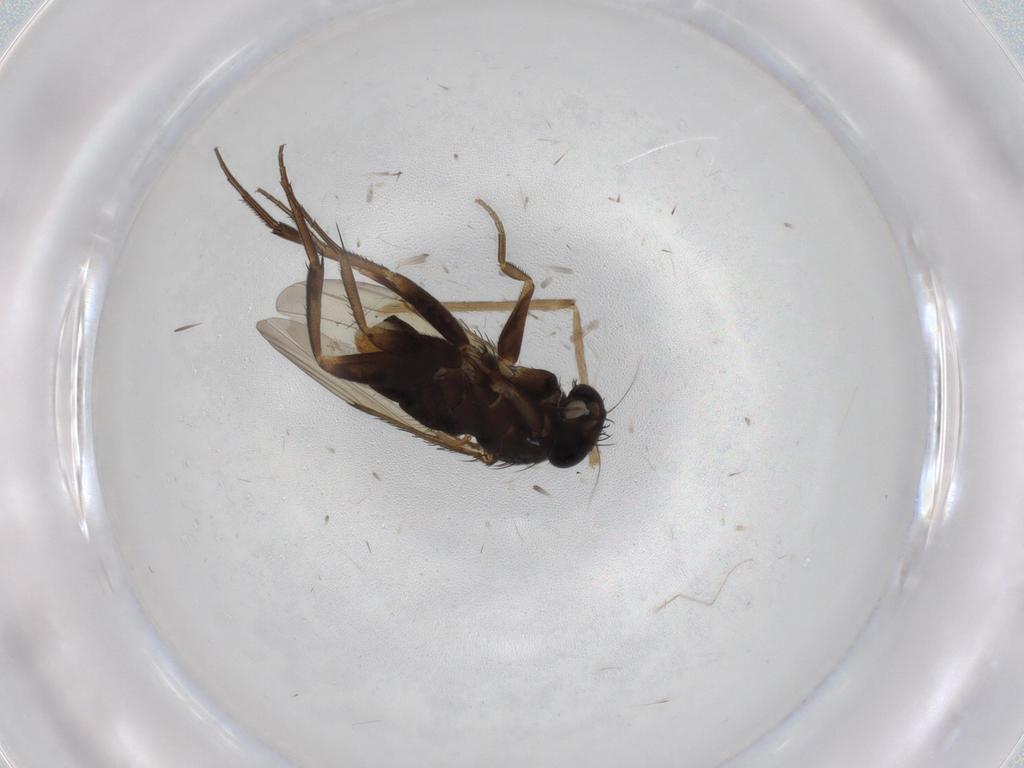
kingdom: Animalia
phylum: Arthropoda
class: Insecta
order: Diptera
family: Phoridae
